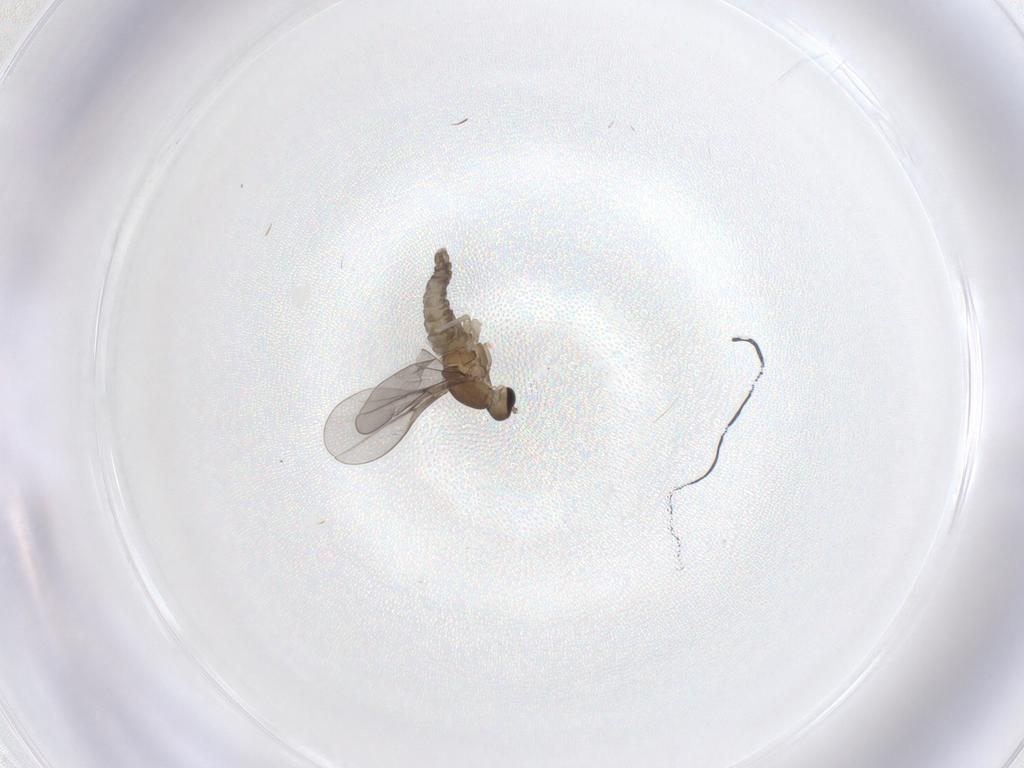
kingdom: Animalia
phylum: Arthropoda
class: Insecta
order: Diptera
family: Cecidomyiidae
